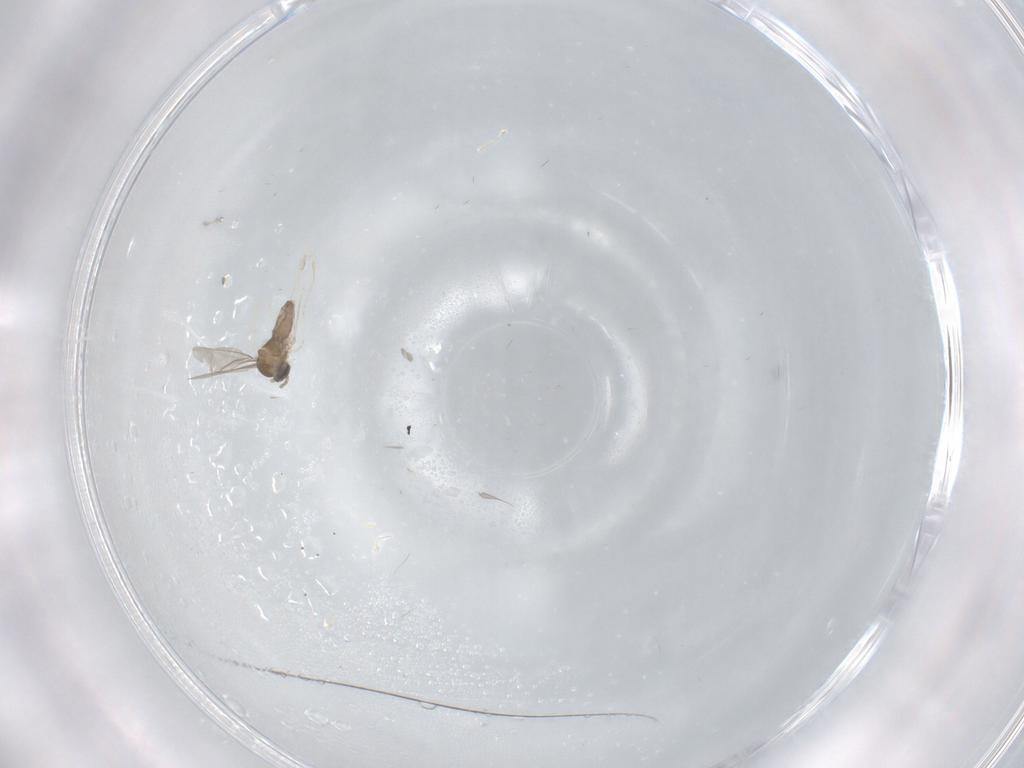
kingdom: Animalia
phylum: Arthropoda
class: Insecta
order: Diptera
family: Cecidomyiidae
